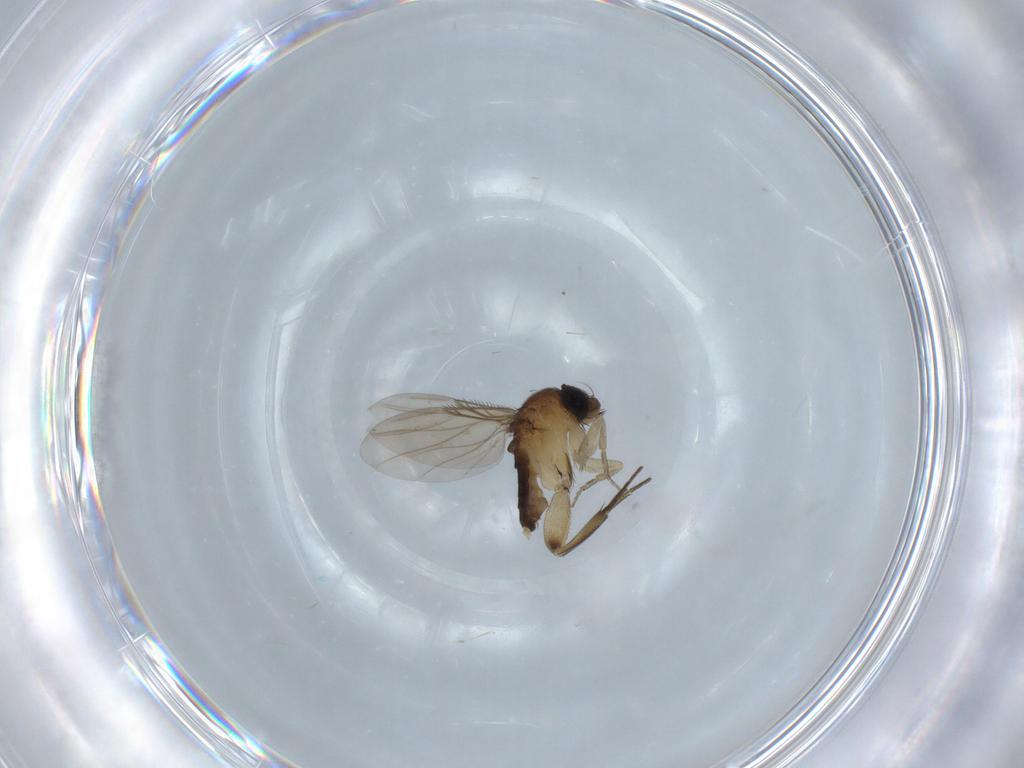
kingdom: Animalia
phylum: Arthropoda
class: Insecta
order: Diptera
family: Phoridae
